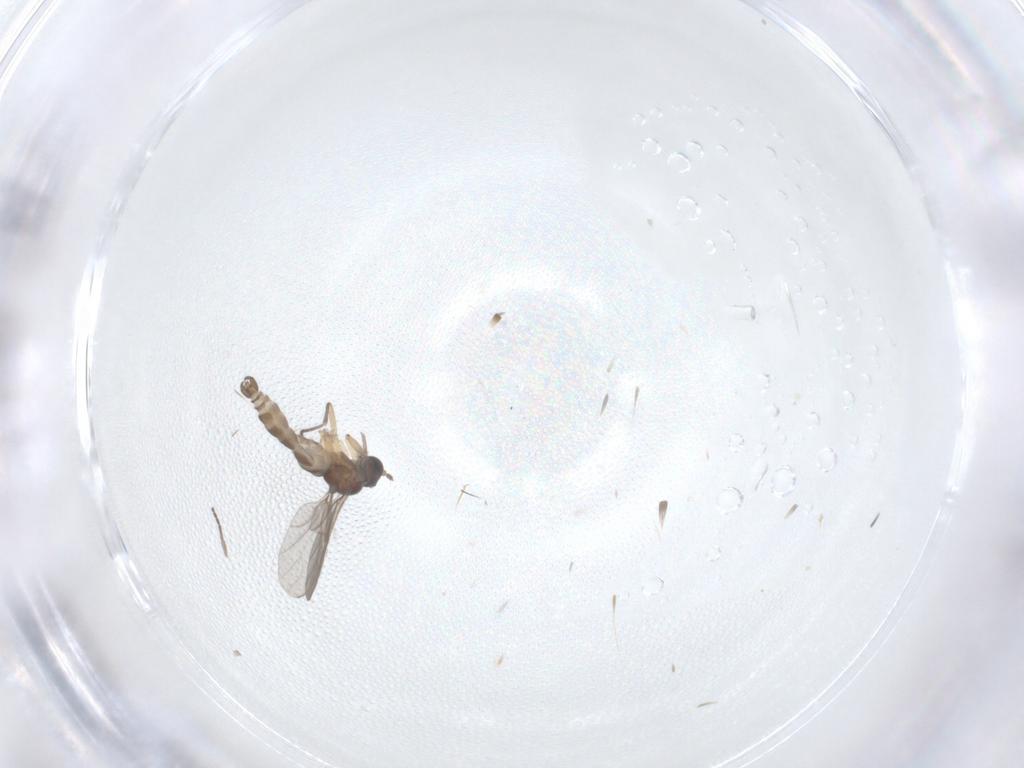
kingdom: Animalia
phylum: Arthropoda
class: Insecta
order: Diptera
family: Sciaridae
